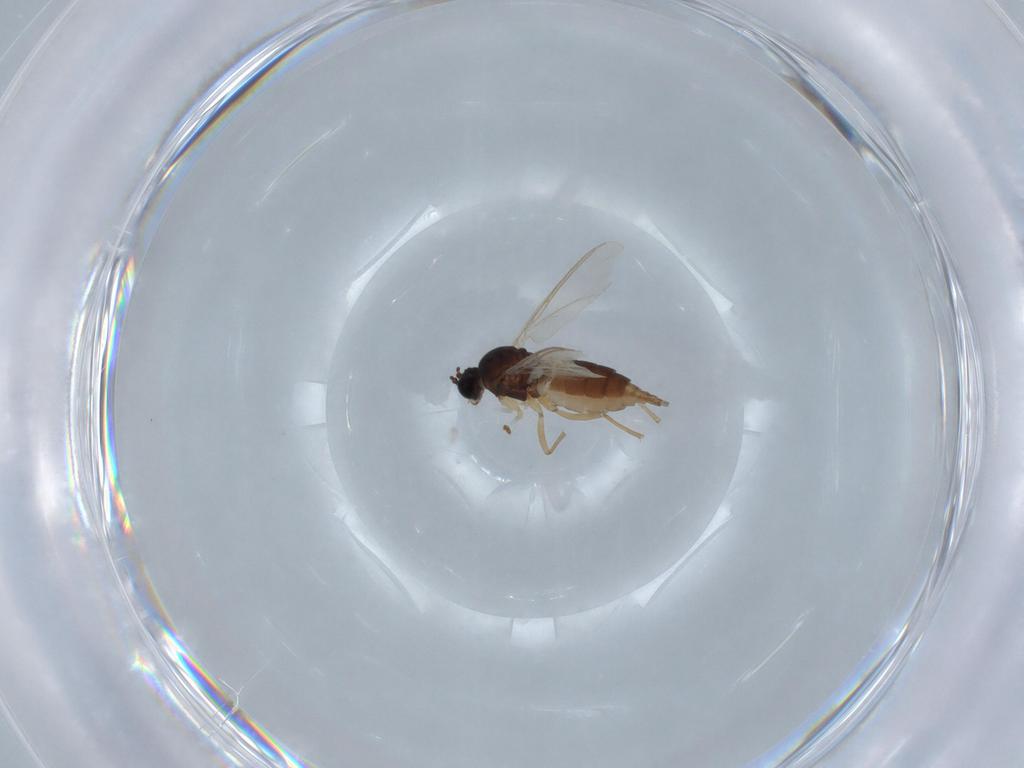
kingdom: Animalia
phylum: Arthropoda
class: Insecta
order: Diptera
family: Sciaridae
